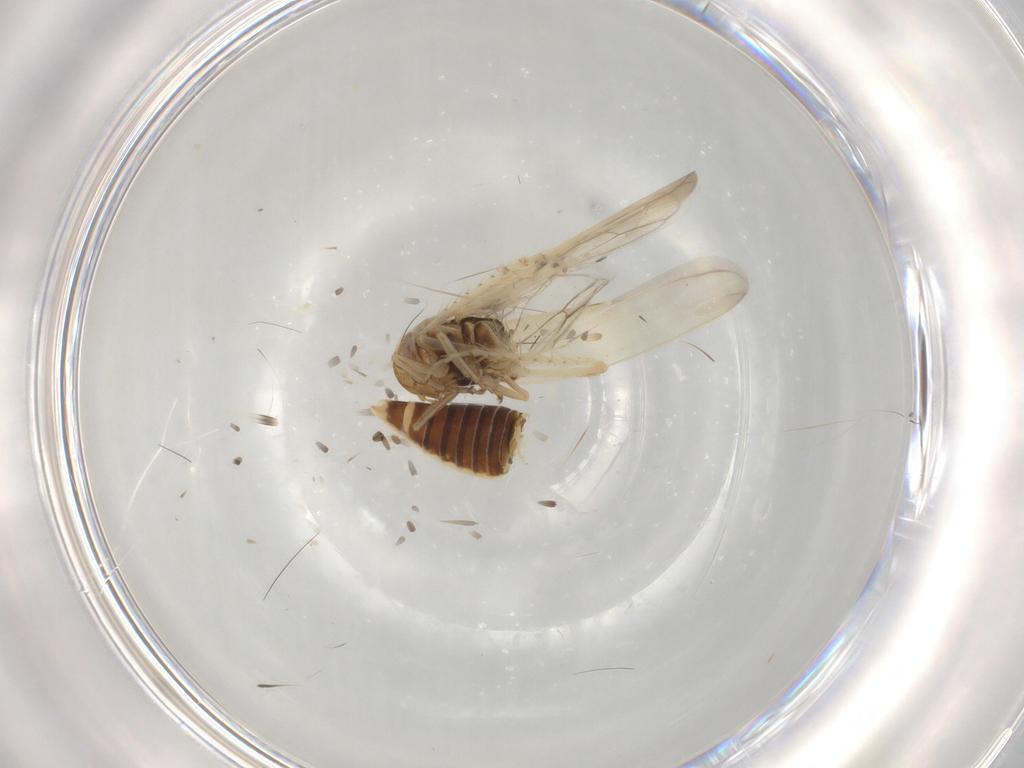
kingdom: Animalia
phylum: Arthropoda
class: Insecta
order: Hemiptera
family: Cicadellidae
